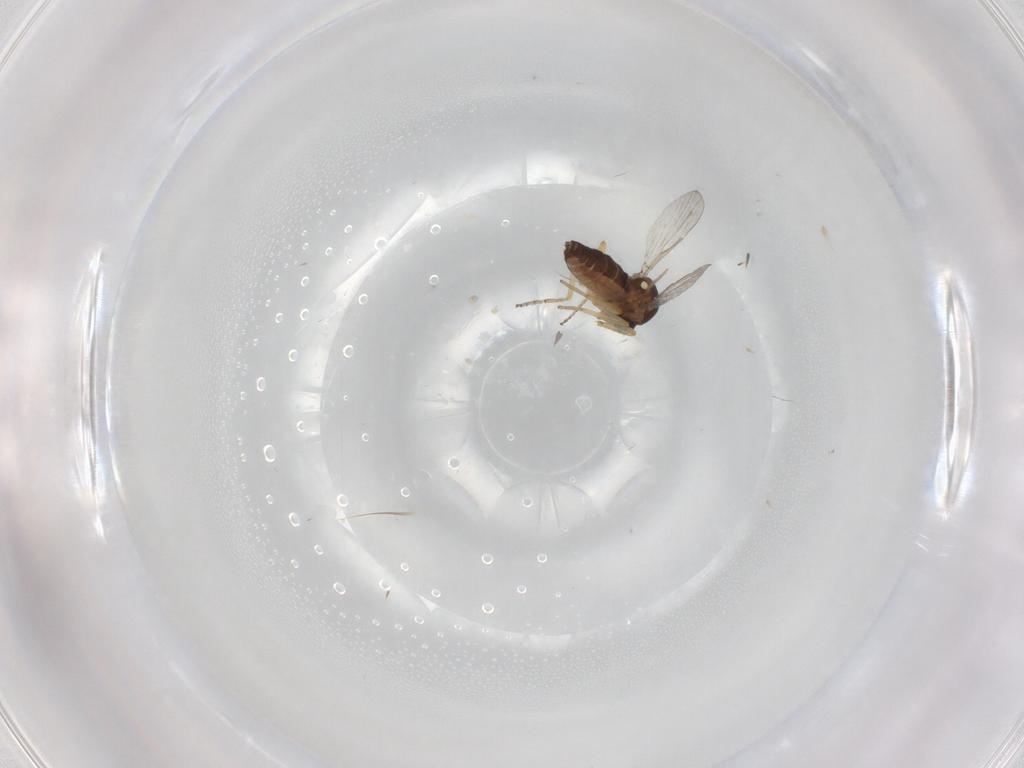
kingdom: Animalia
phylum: Arthropoda
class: Insecta
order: Diptera
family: Ceratopogonidae
